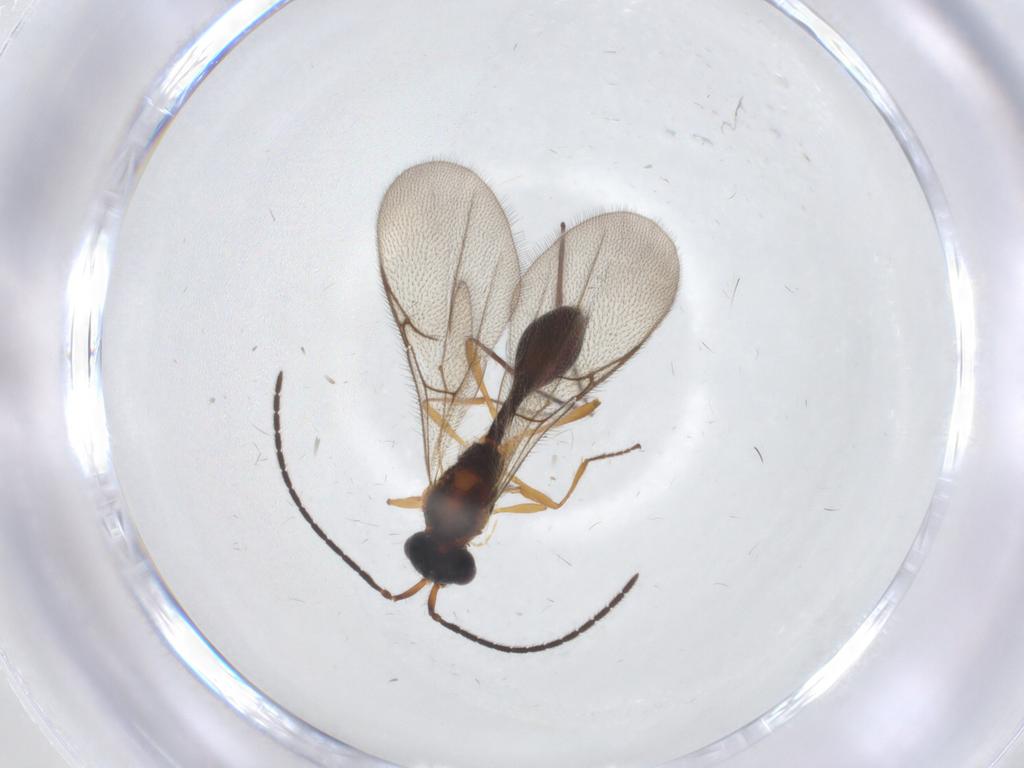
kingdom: Animalia
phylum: Arthropoda
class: Insecta
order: Hymenoptera
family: Diapriidae
